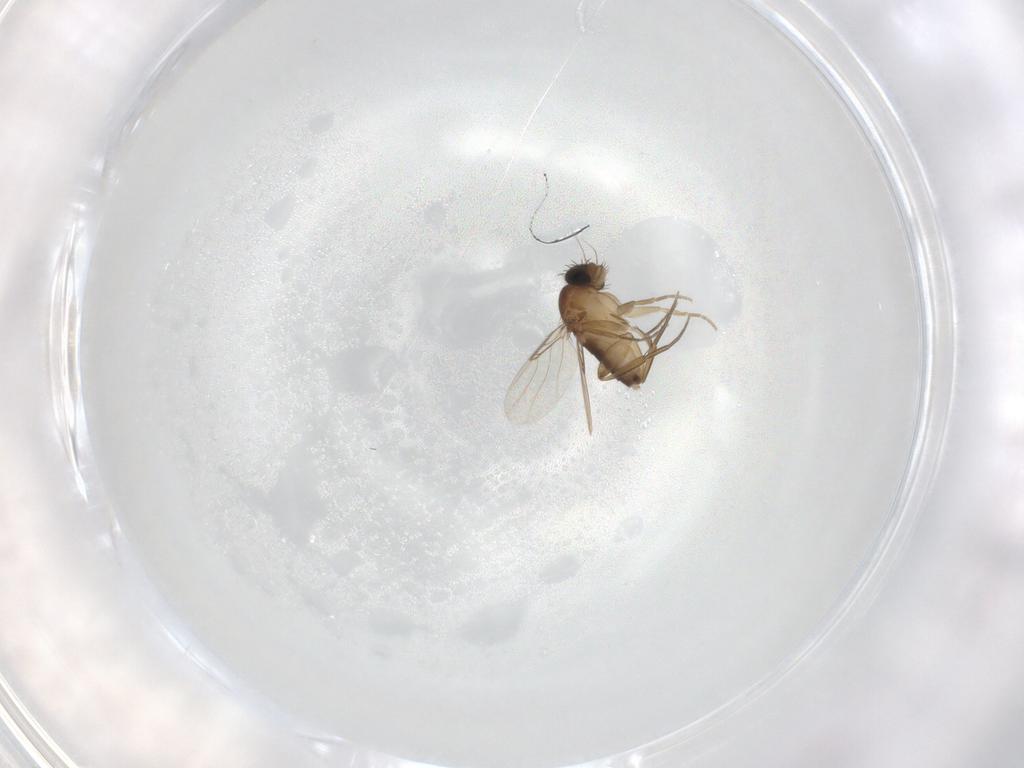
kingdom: Animalia
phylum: Arthropoda
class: Insecta
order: Diptera
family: Phoridae
